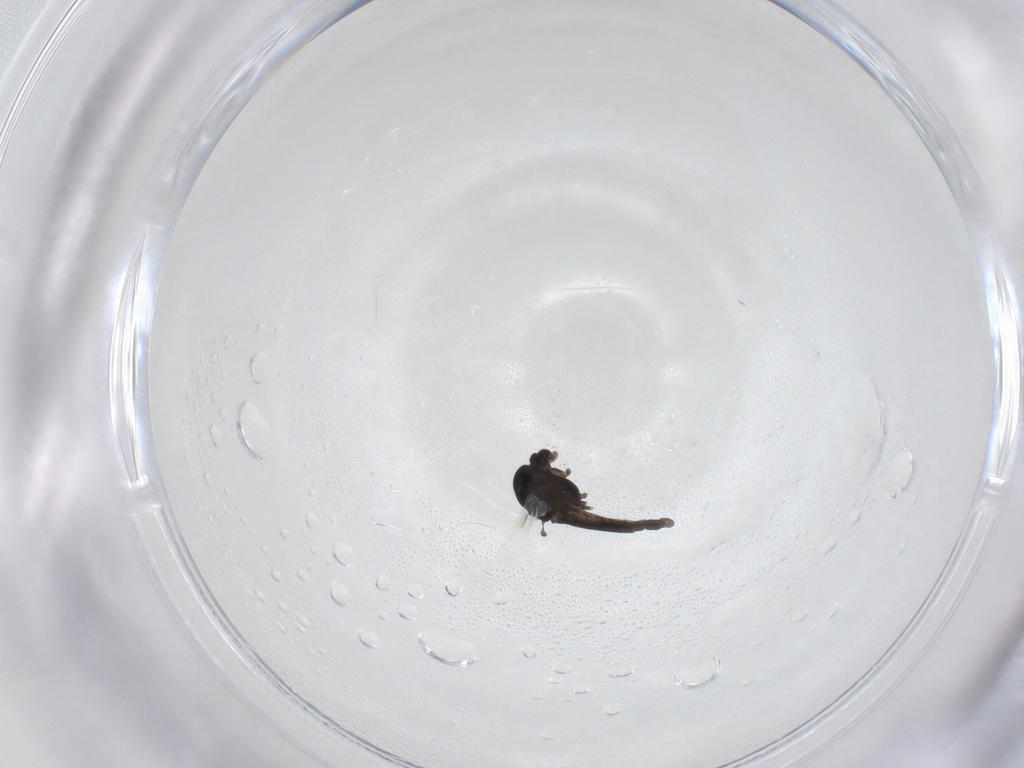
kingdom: Animalia
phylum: Arthropoda
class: Insecta
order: Diptera
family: Chironomidae
